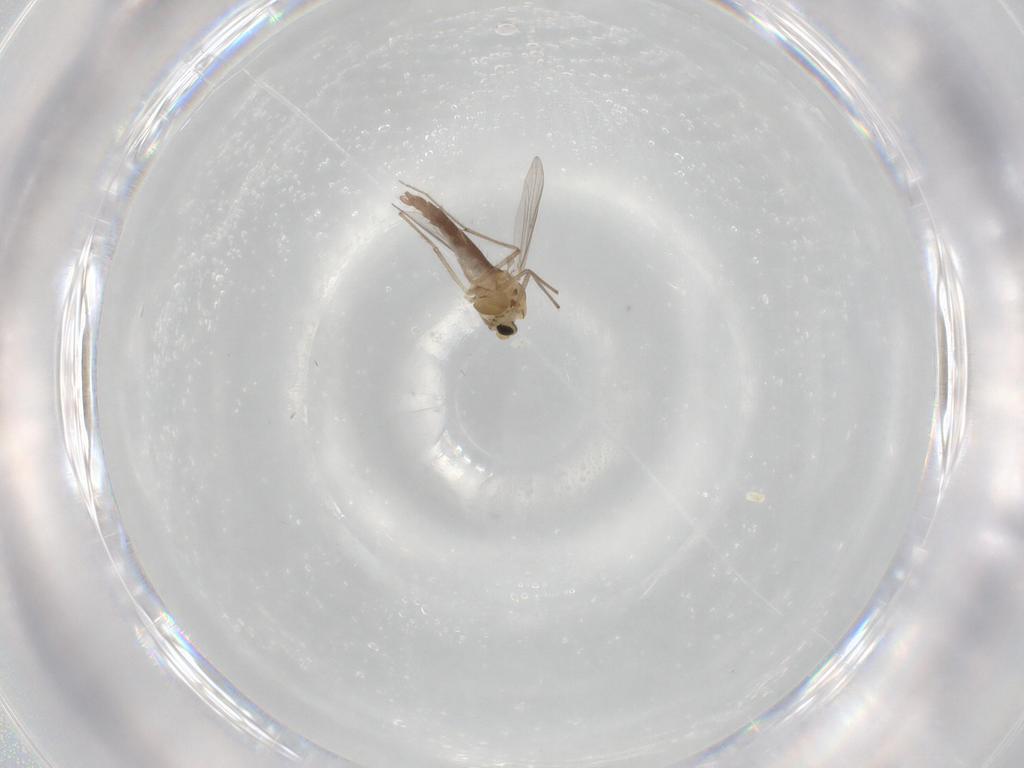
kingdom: Animalia
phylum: Arthropoda
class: Insecta
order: Diptera
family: Chironomidae
